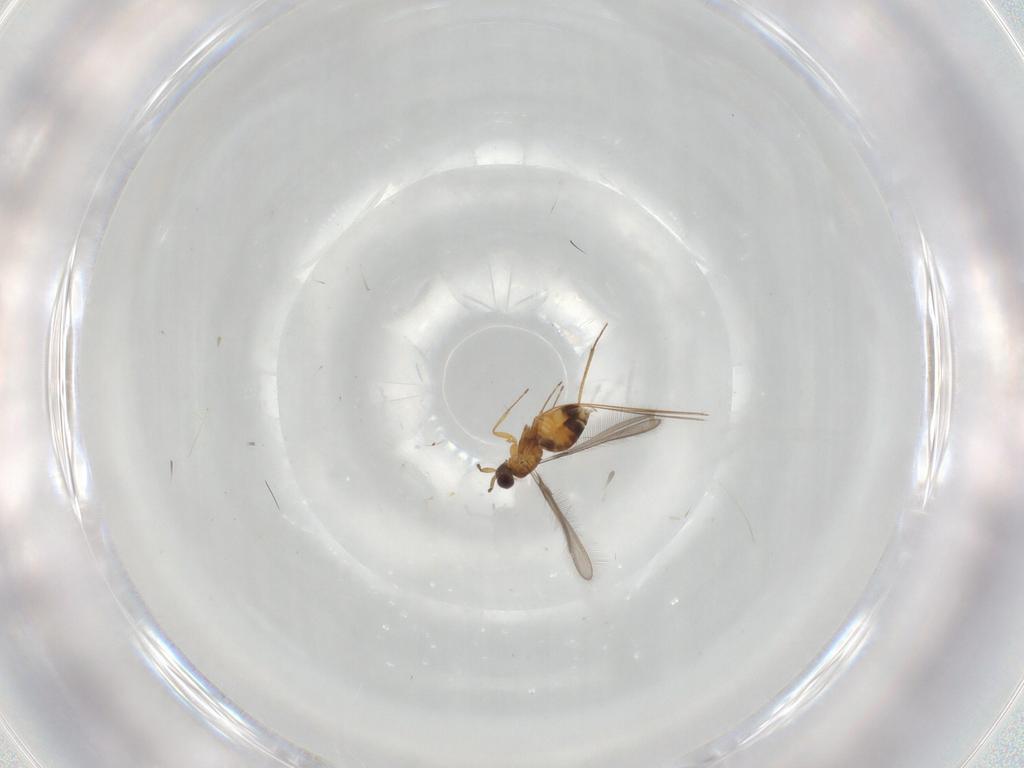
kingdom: Animalia
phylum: Arthropoda
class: Insecta
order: Hymenoptera
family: Mymaridae
